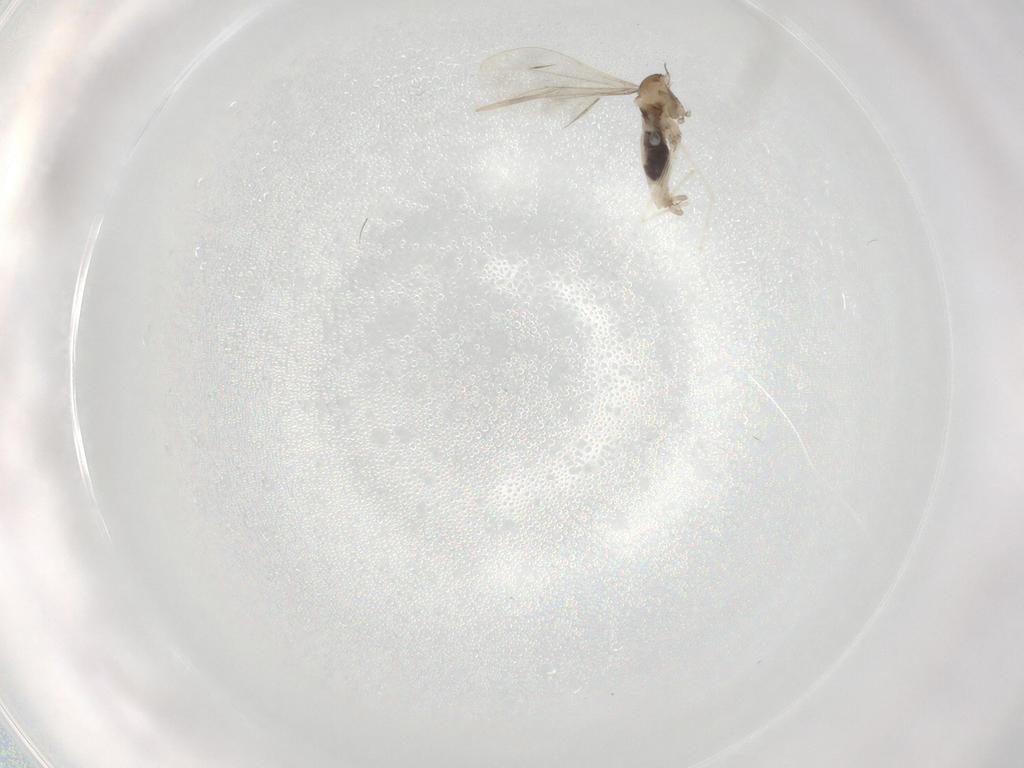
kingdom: Animalia
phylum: Arthropoda
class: Insecta
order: Diptera
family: Cecidomyiidae
